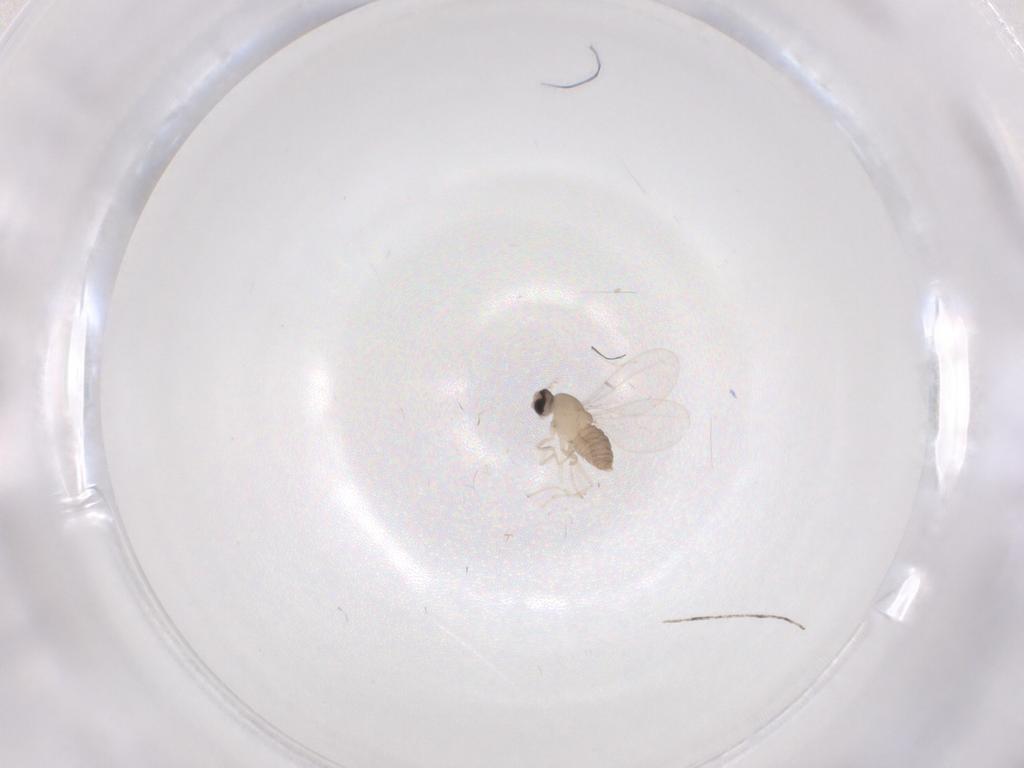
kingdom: Animalia
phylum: Arthropoda
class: Insecta
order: Diptera
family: Cecidomyiidae
